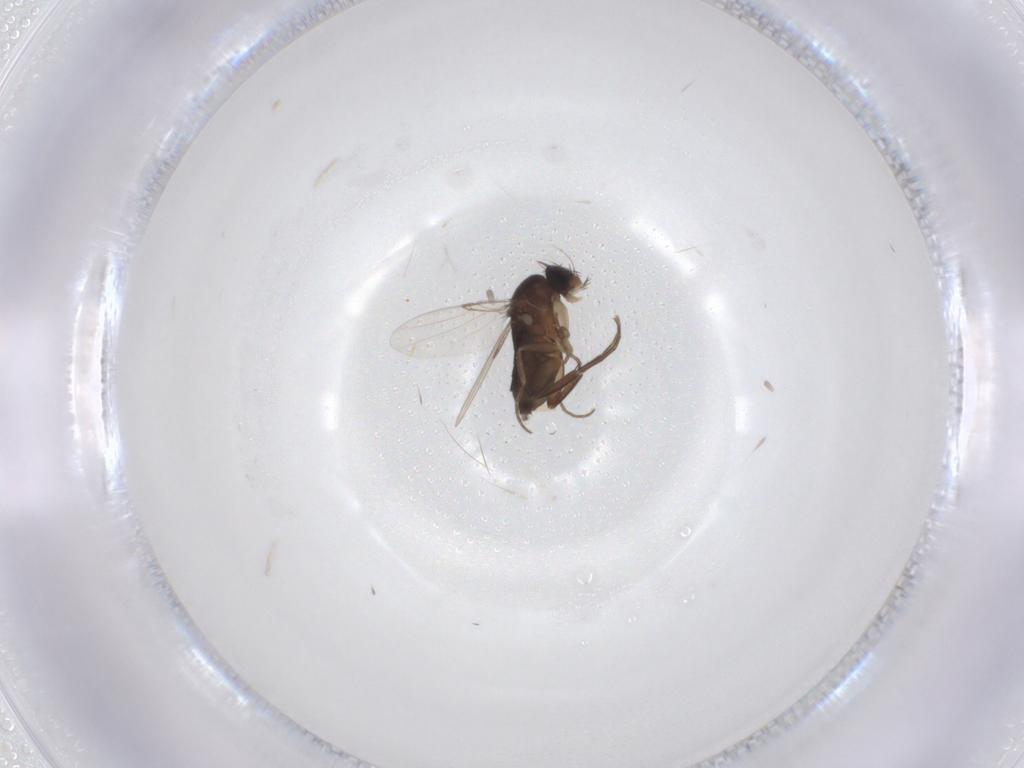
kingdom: Animalia
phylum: Arthropoda
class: Insecta
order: Diptera
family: Phoridae
